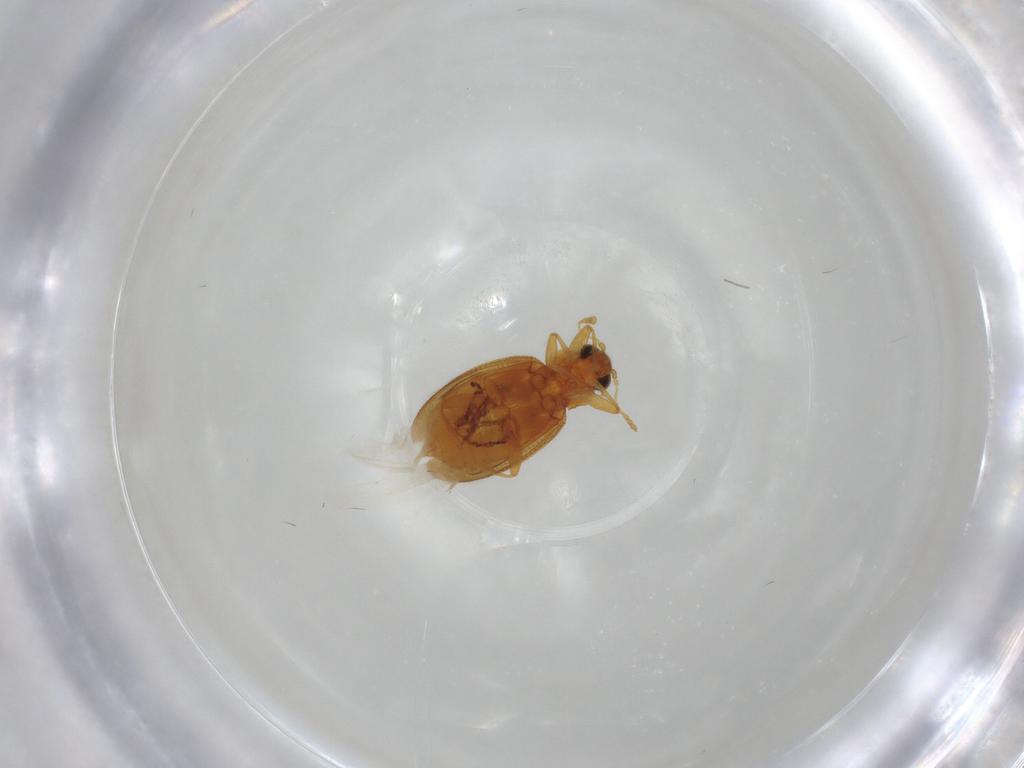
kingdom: Animalia
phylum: Arthropoda
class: Insecta
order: Coleoptera
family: Latridiidae
